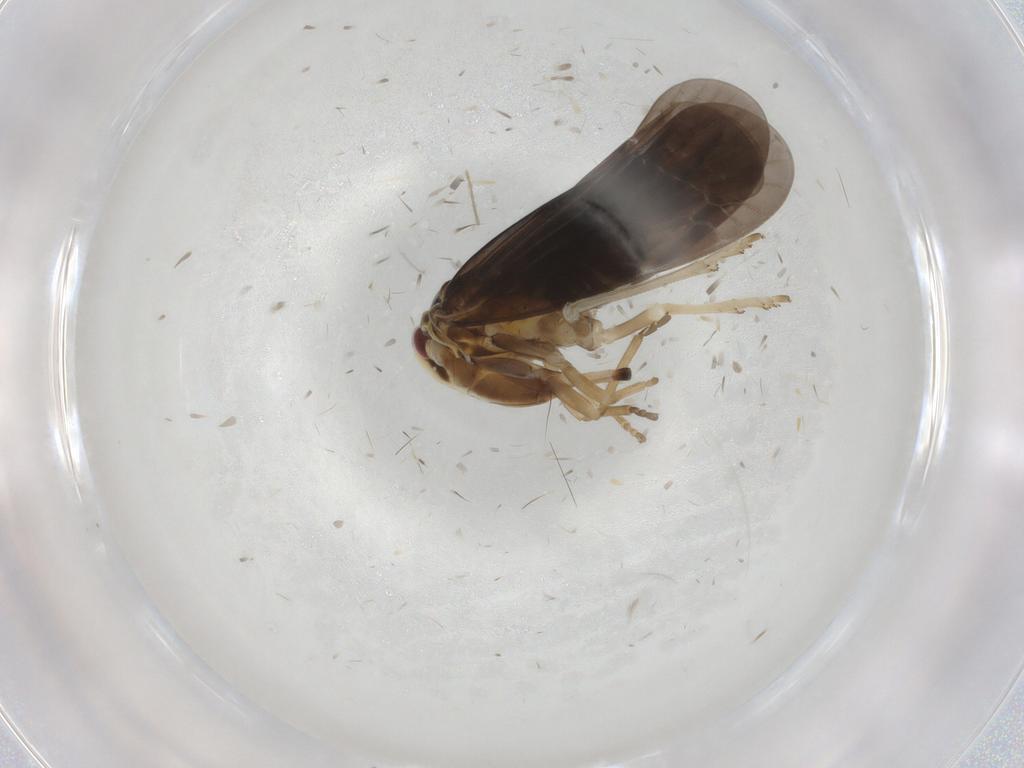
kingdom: Animalia
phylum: Arthropoda
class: Insecta
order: Hemiptera
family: Derbidae
